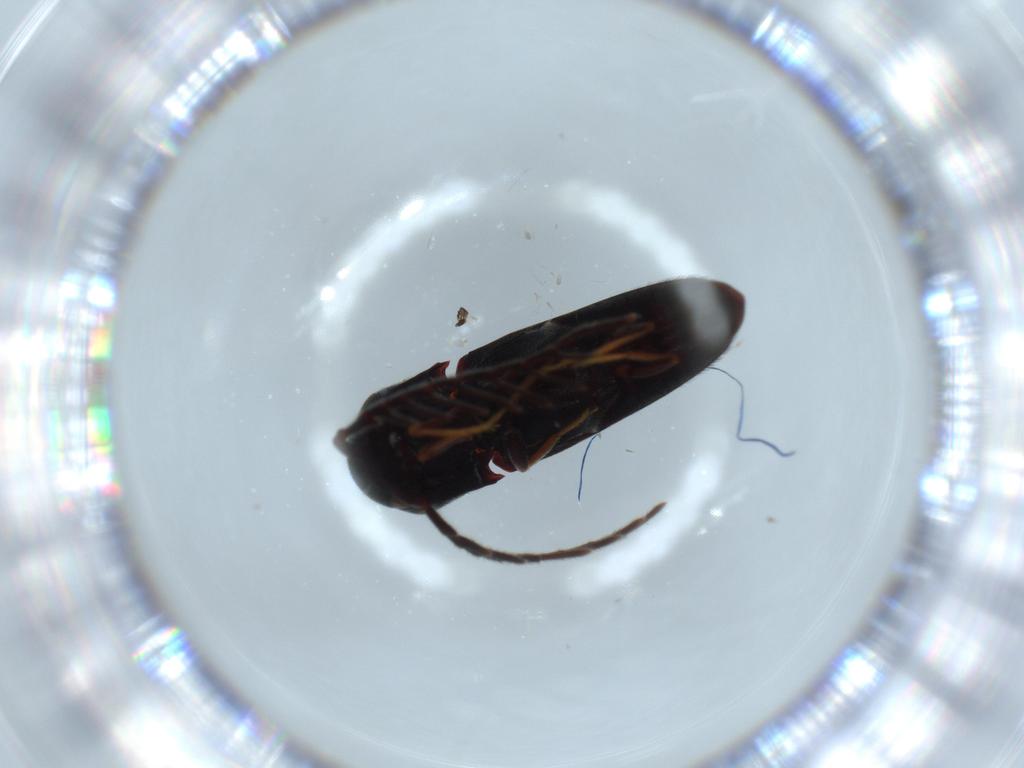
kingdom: Animalia
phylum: Arthropoda
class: Insecta
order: Coleoptera
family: Eucnemidae
